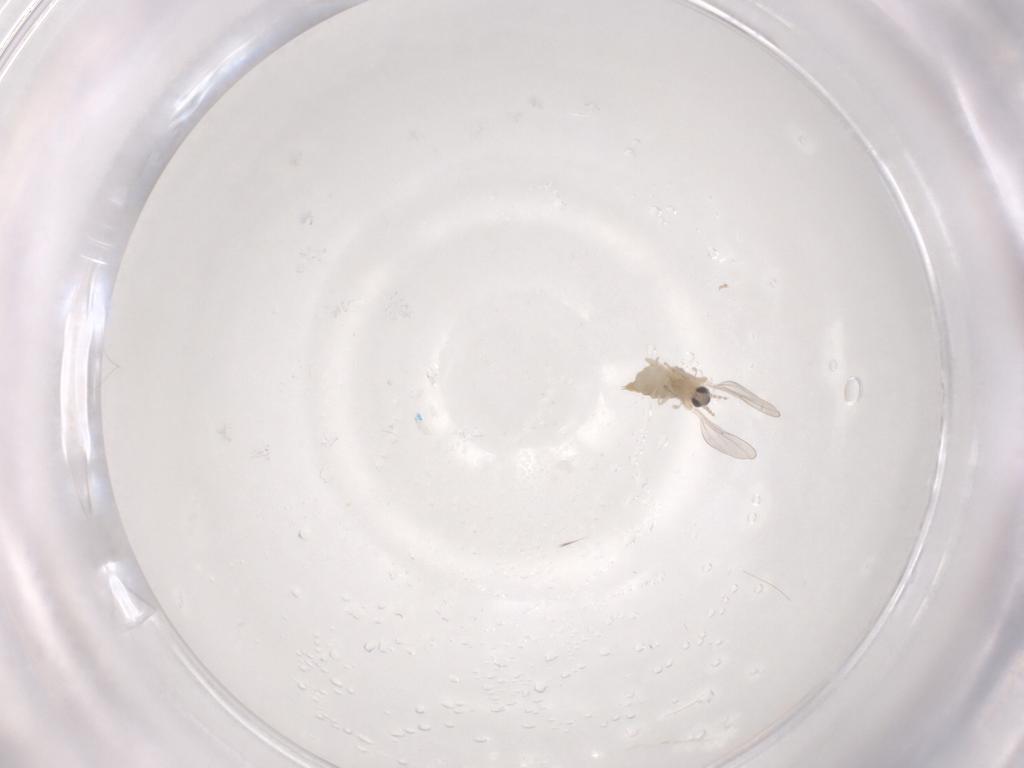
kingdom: Animalia
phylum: Arthropoda
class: Insecta
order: Diptera
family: Cecidomyiidae
